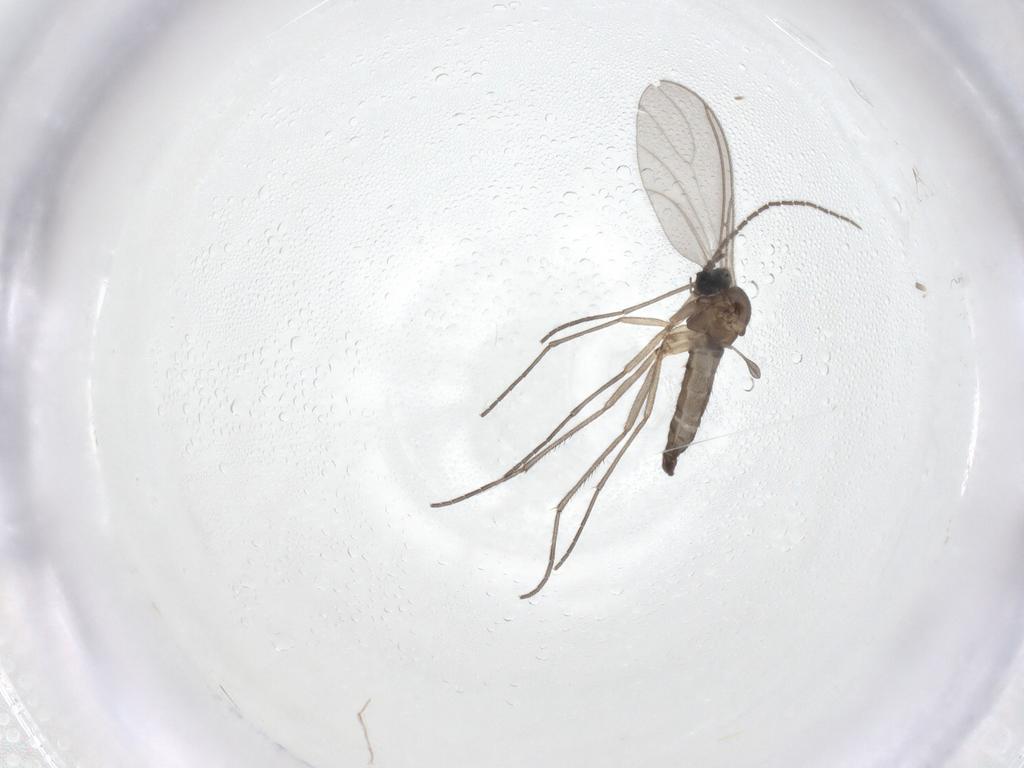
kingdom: Animalia
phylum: Arthropoda
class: Insecta
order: Diptera
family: Sciaridae
